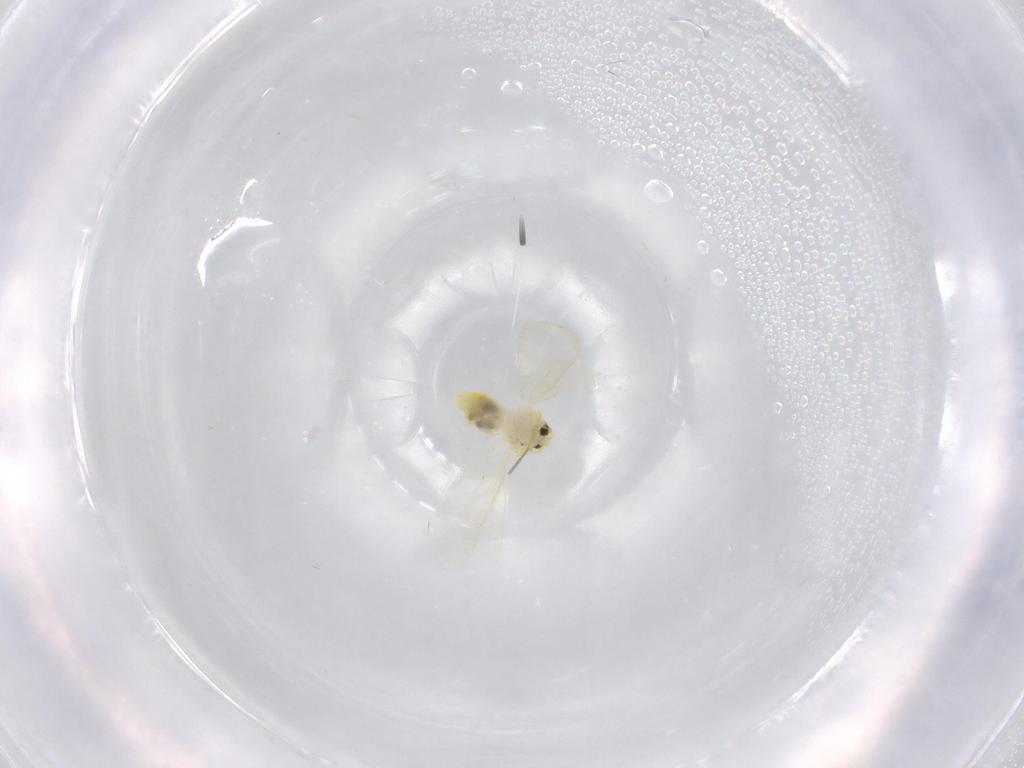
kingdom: Animalia
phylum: Arthropoda
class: Insecta
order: Hemiptera
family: Aleyrodidae
